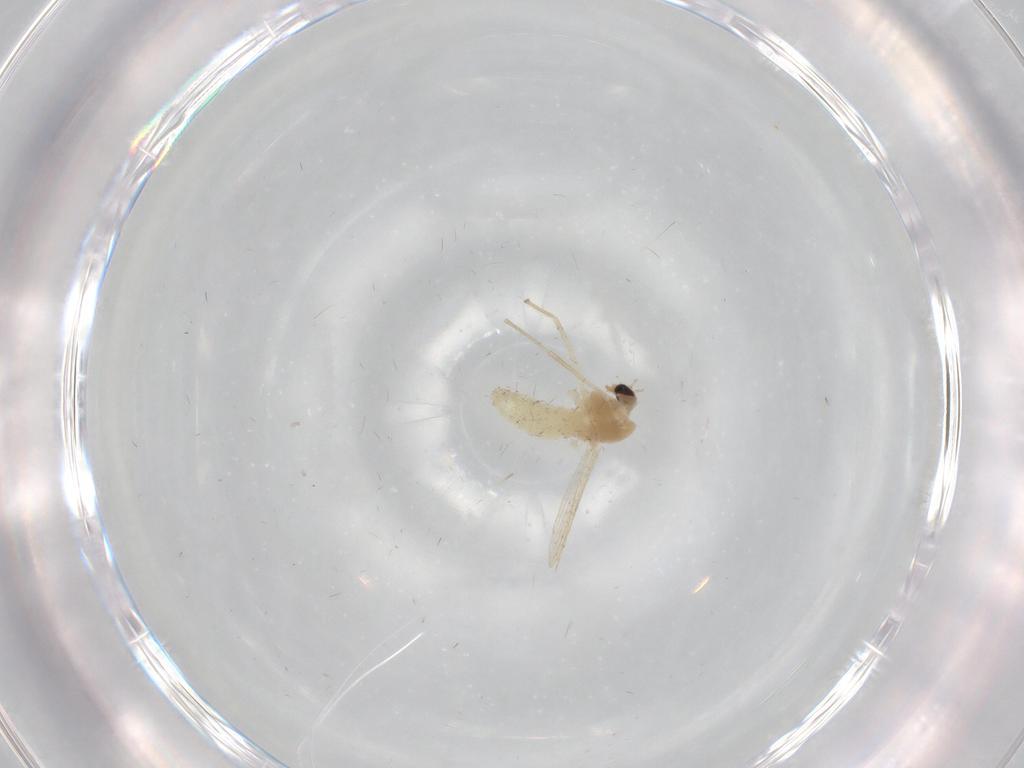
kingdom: Animalia
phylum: Arthropoda
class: Insecta
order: Diptera
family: Chironomidae
